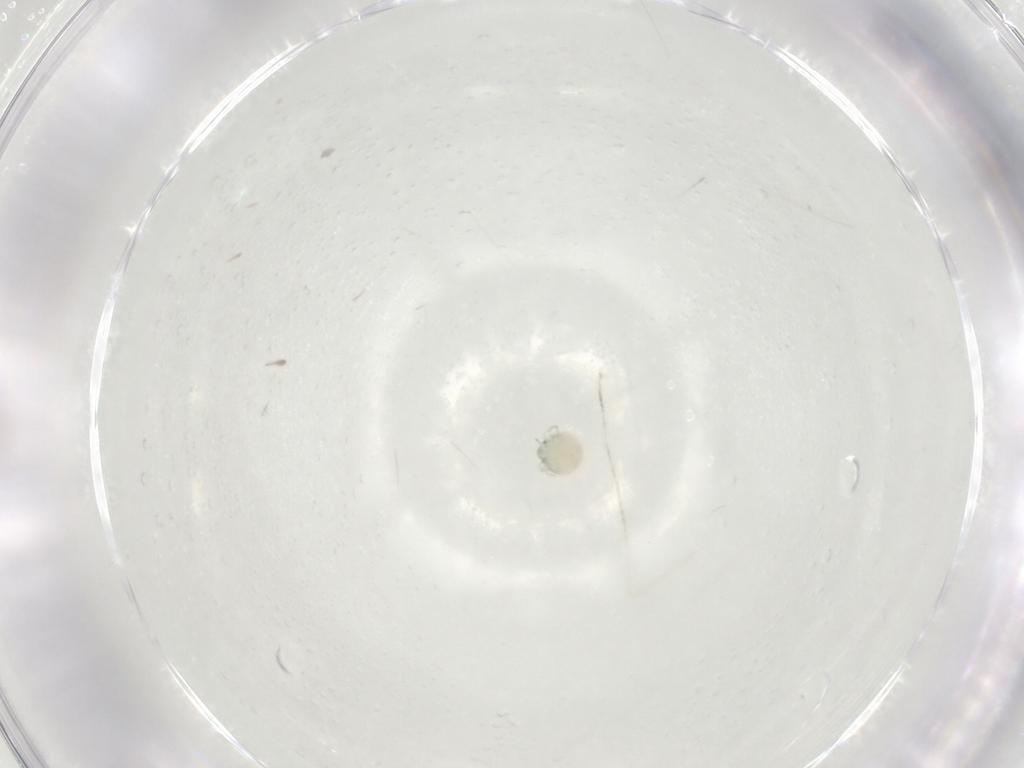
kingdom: Animalia
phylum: Arthropoda
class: Arachnida
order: Trombidiformes
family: Arrenuridae
